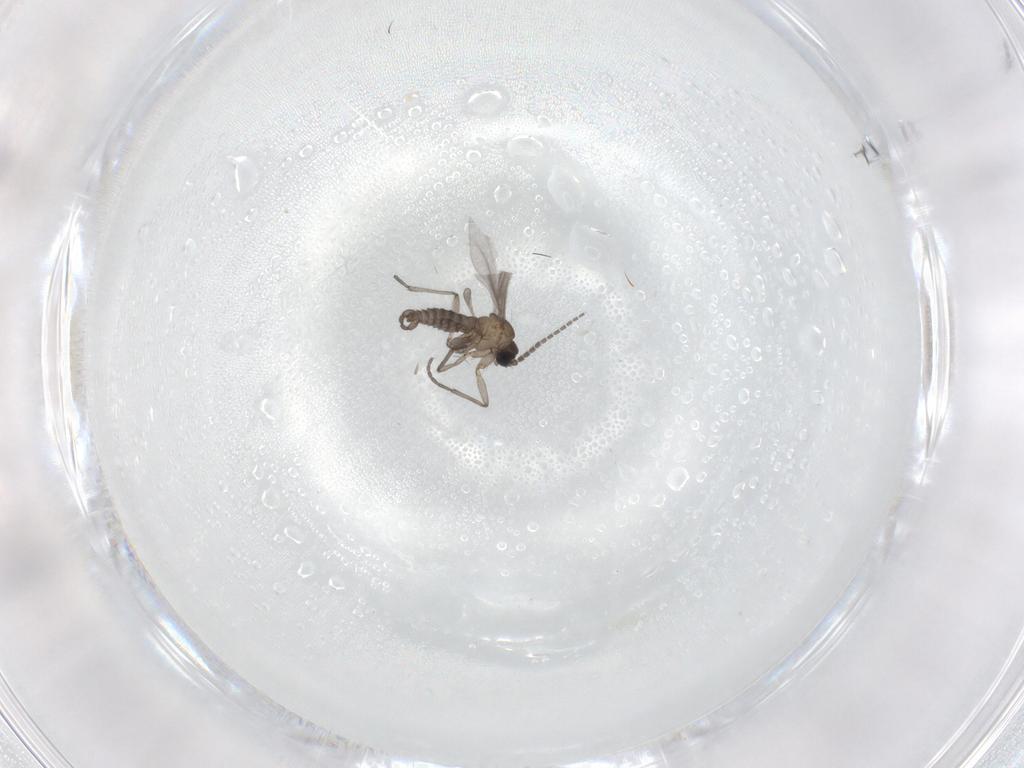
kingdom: Animalia
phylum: Arthropoda
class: Insecta
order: Diptera
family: Sciaridae
